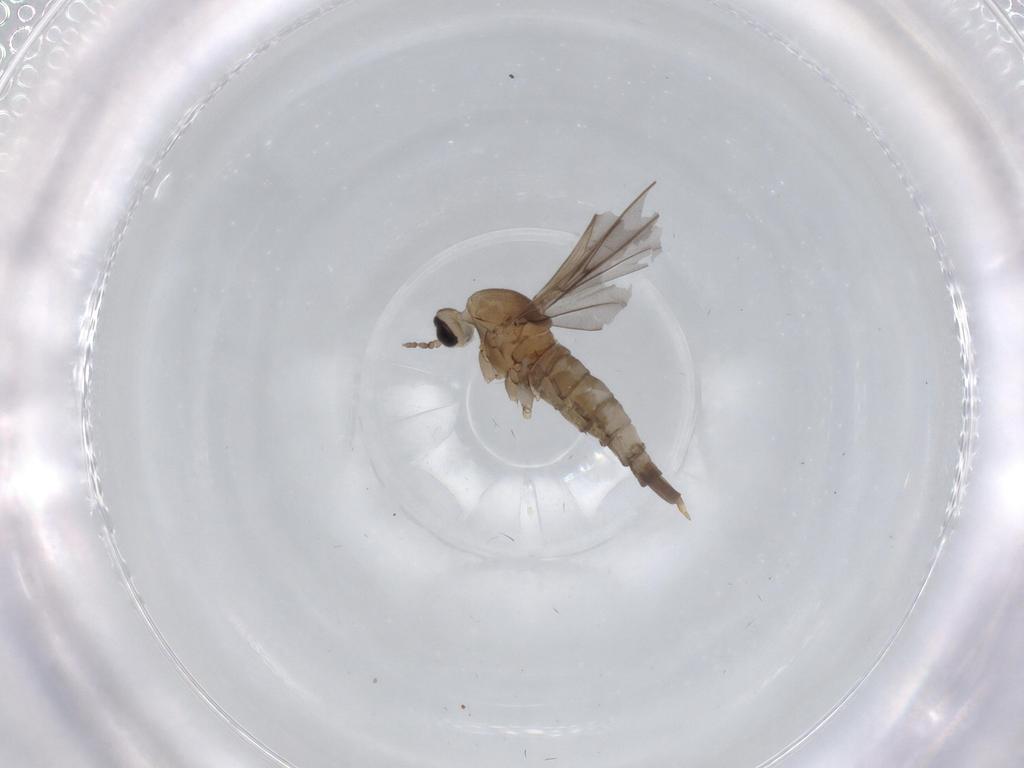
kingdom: Animalia
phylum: Arthropoda
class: Insecta
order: Diptera
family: Cecidomyiidae
